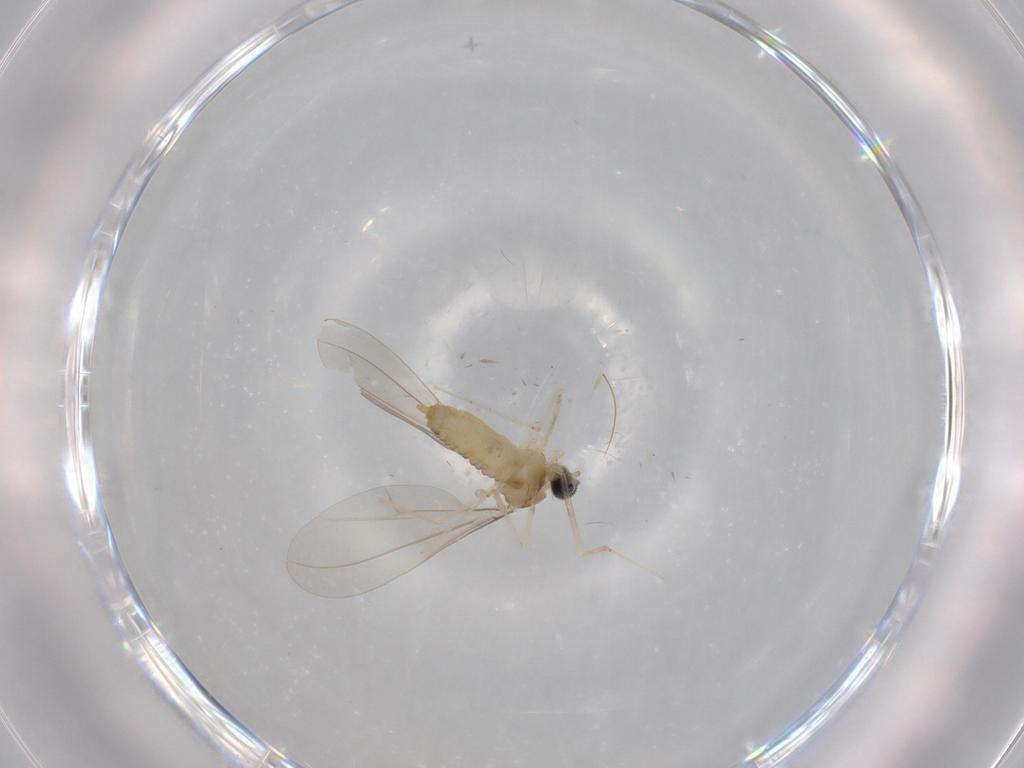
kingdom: Animalia
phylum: Arthropoda
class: Insecta
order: Diptera
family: Cecidomyiidae
